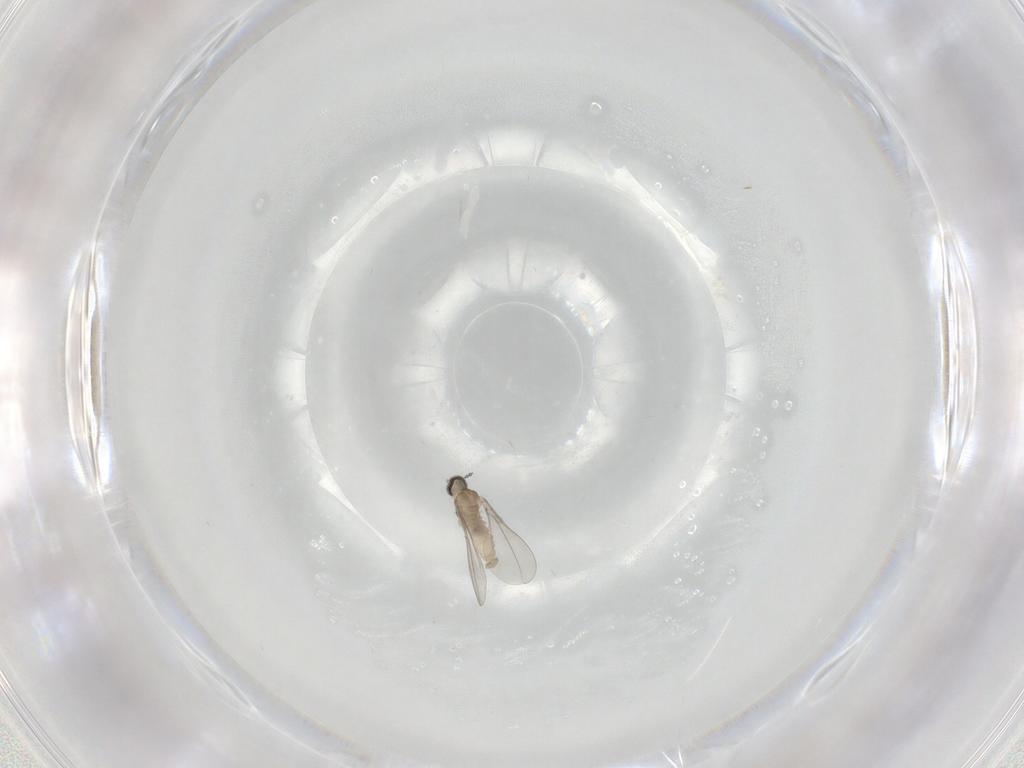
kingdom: Animalia
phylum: Arthropoda
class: Insecta
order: Diptera
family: Cecidomyiidae
